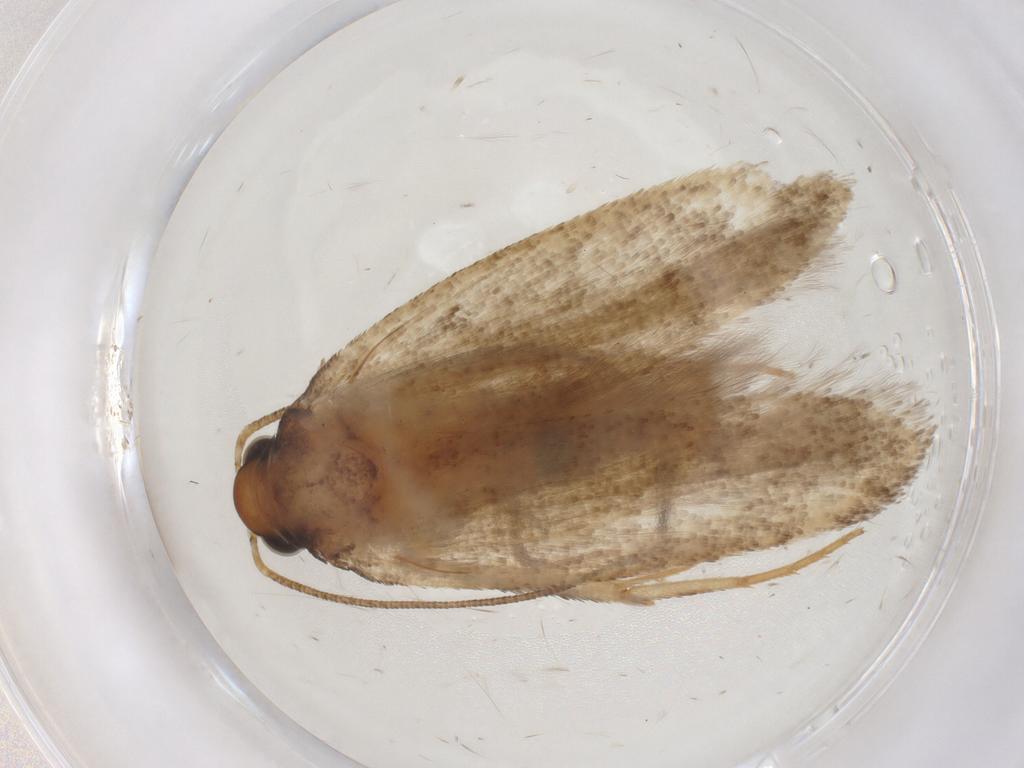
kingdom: Animalia
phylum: Arthropoda
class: Insecta
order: Lepidoptera
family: Gelechiidae
